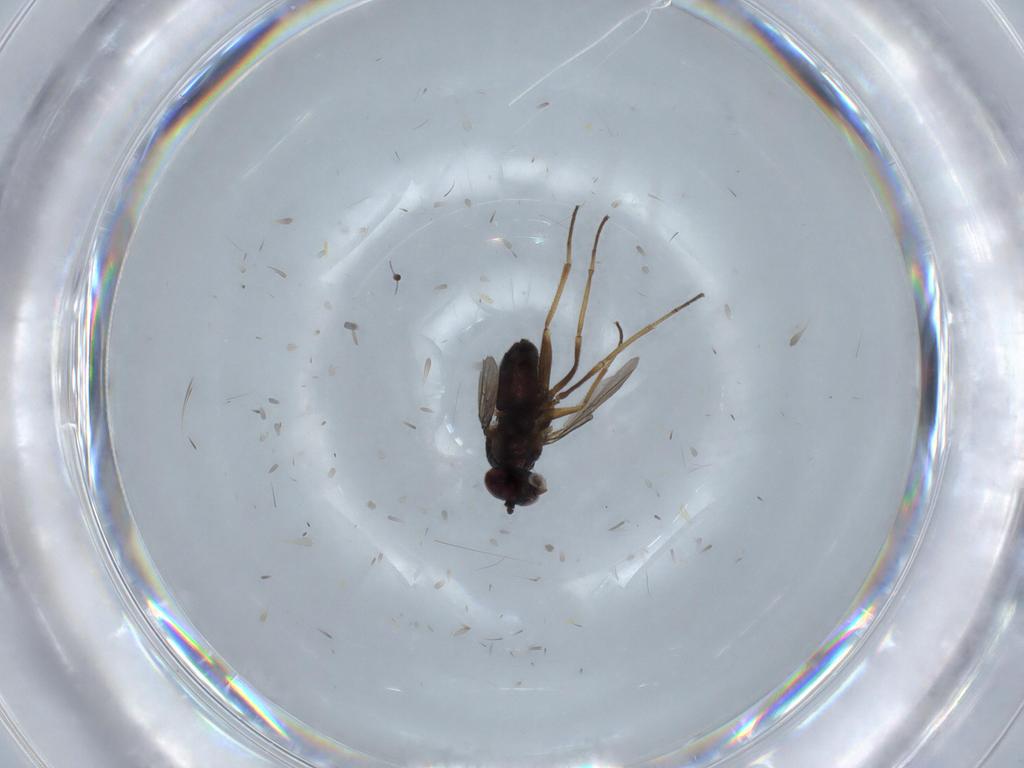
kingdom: Animalia
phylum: Arthropoda
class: Insecta
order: Diptera
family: Dolichopodidae
